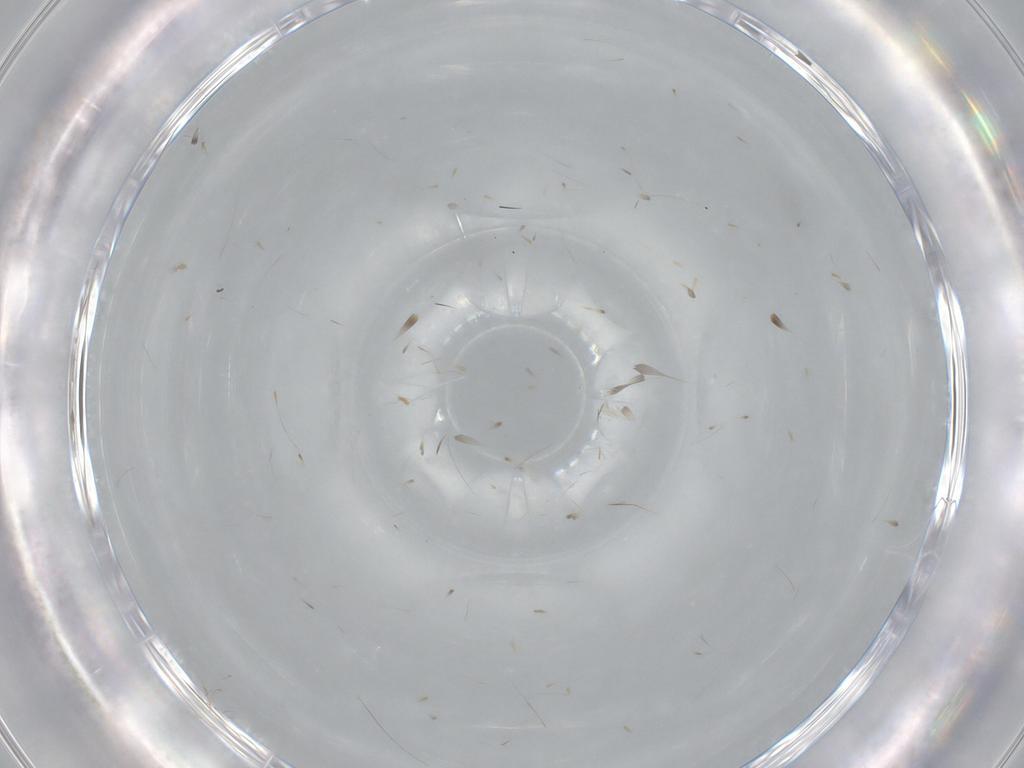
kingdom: Animalia
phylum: Arthropoda
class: Insecta
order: Diptera
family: Cecidomyiidae
